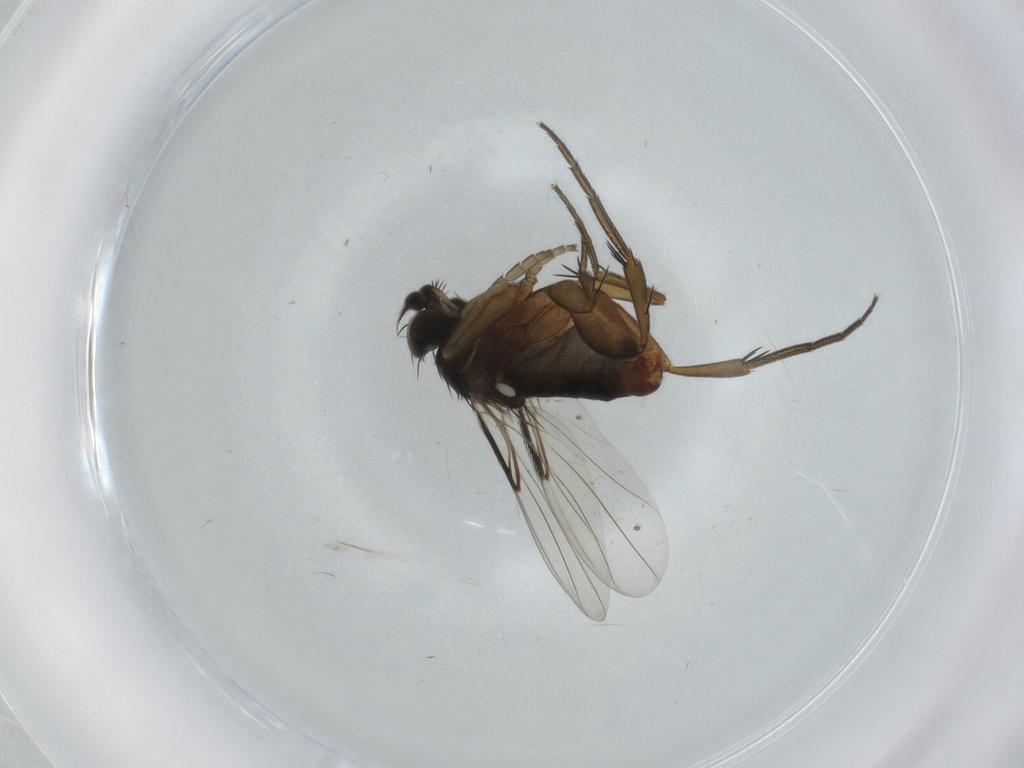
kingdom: Animalia
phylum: Arthropoda
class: Insecta
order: Diptera
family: Phoridae
